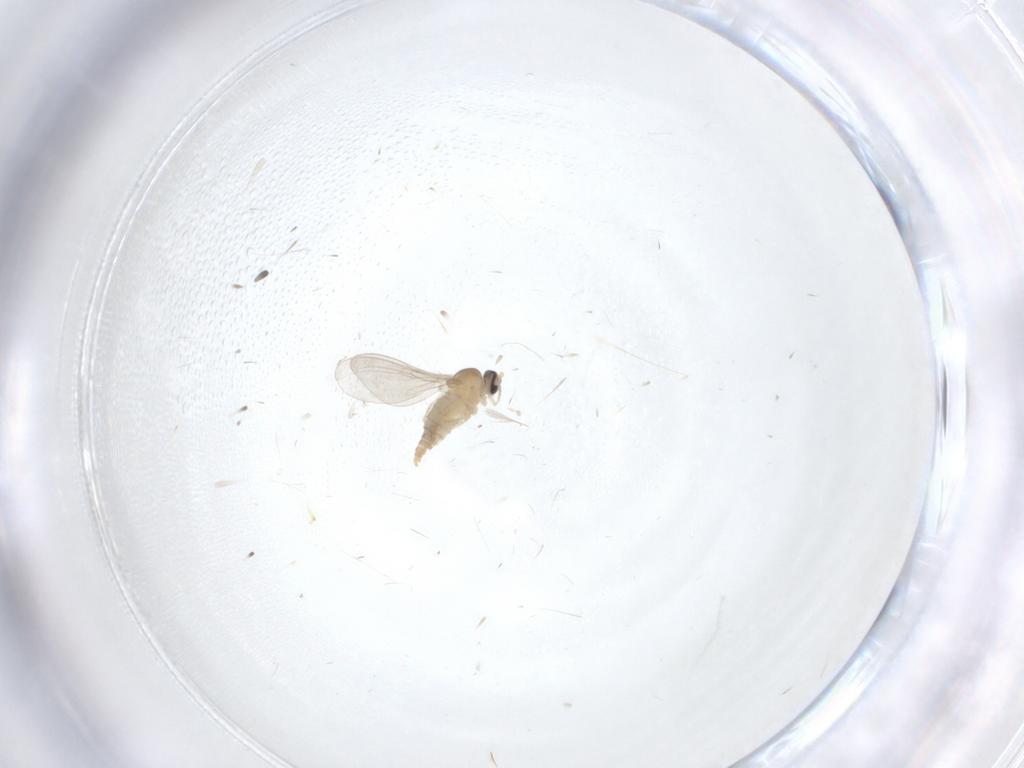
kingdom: Animalia
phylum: Arthropoda
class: Insecta
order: Diptera
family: Cecidomyiidae
